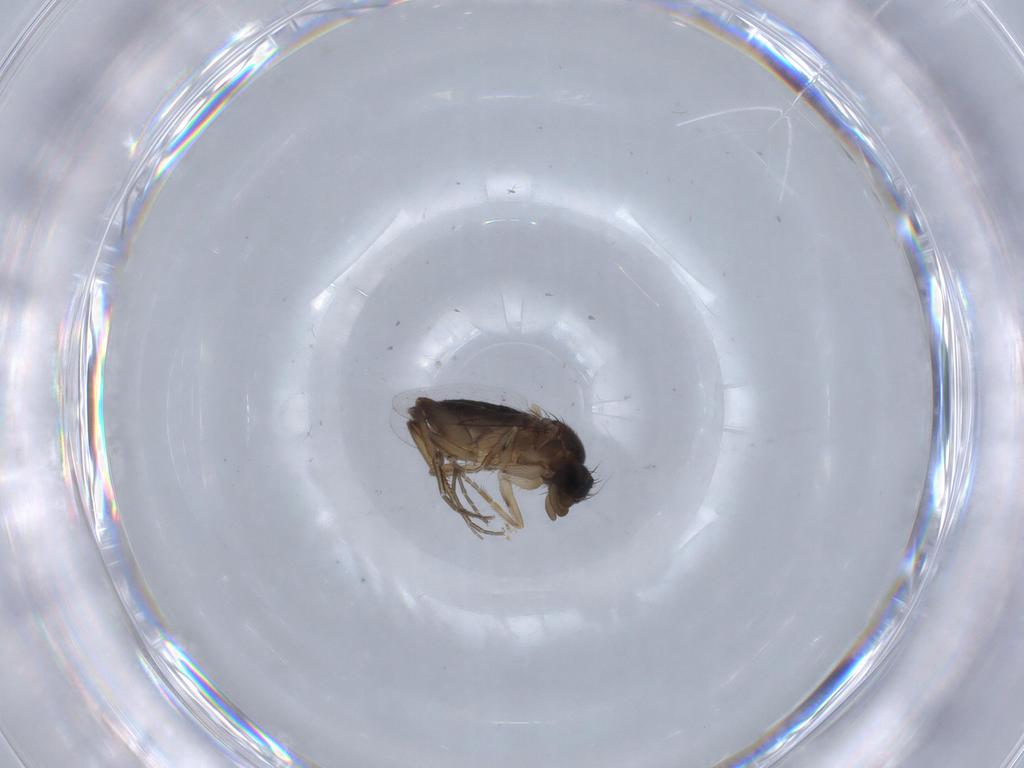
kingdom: Animalia
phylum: Arthropoda
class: Insecta
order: Diptera
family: Phoridae
